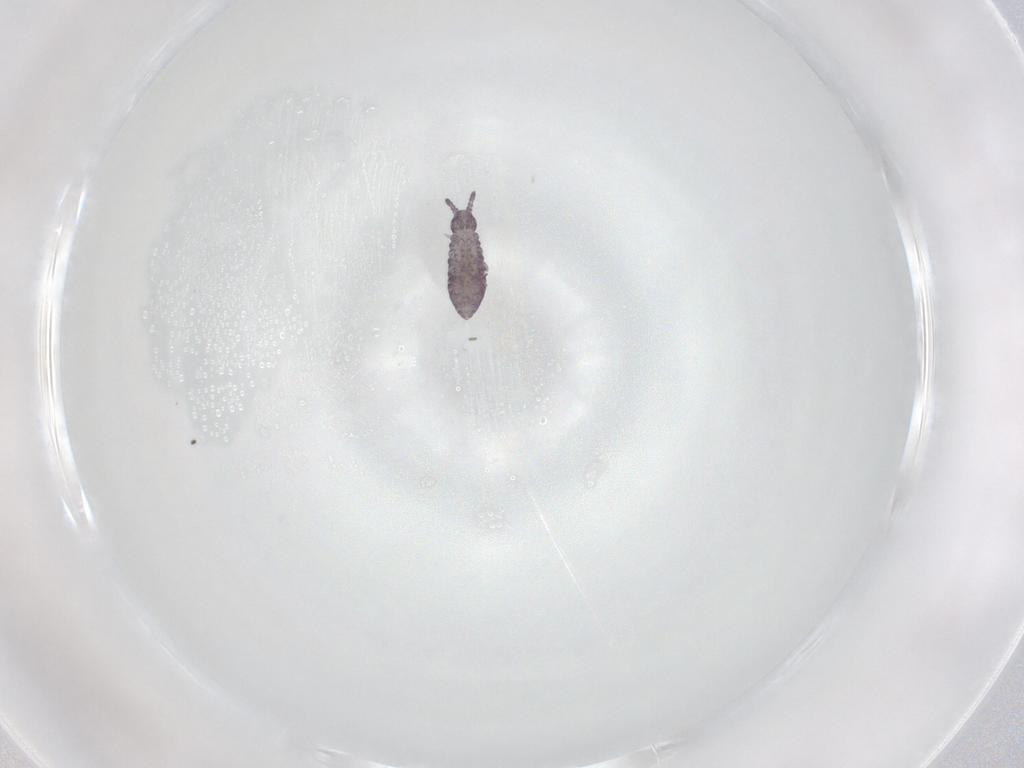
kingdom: Animalia
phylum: Arthropoda
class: Collembola
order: Poduromorpha
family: Brachystomellidae
